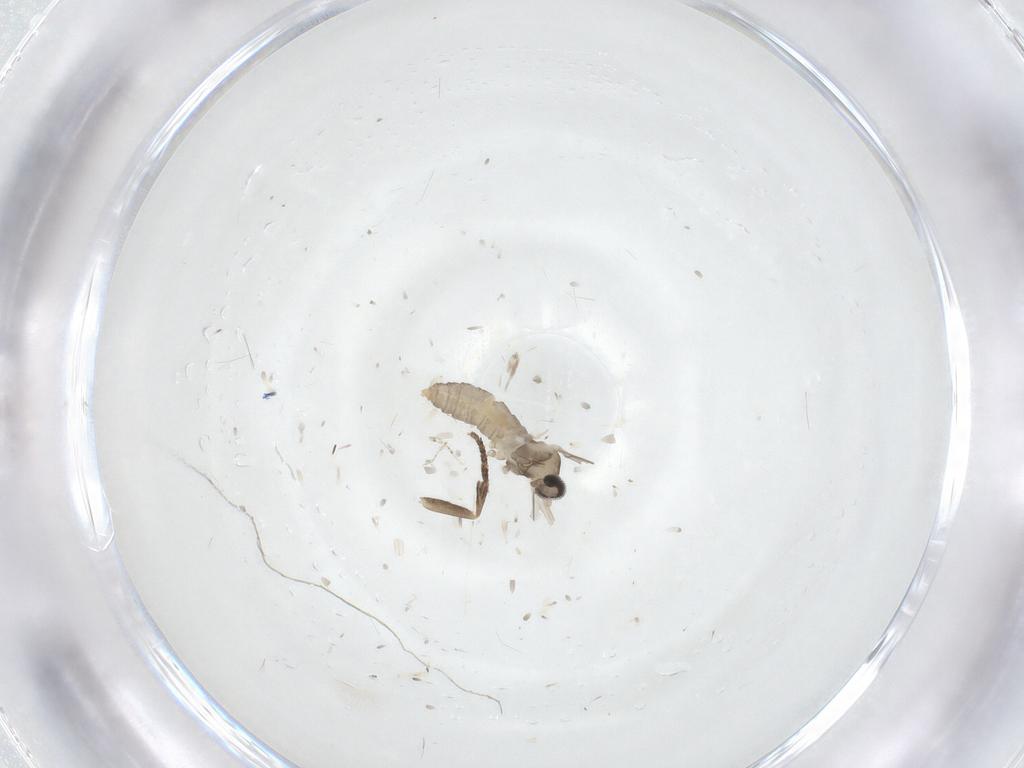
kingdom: Animalia
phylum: Arthropoda
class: Insecta
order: Diptera
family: Cecidomyiidae
